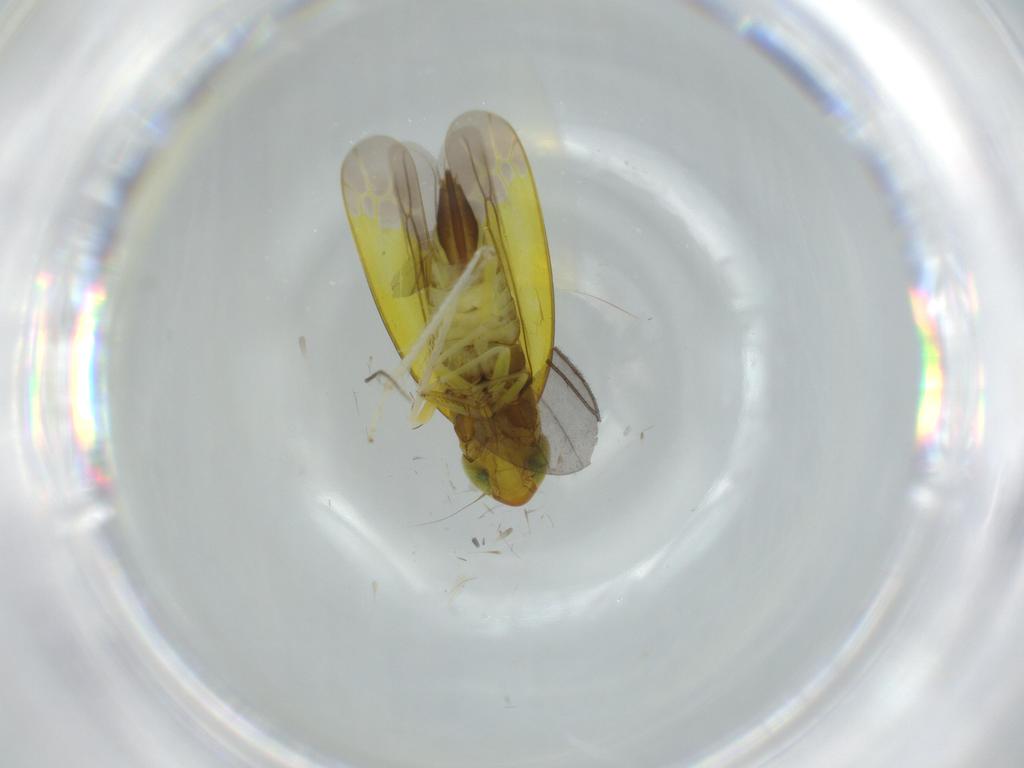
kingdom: Animalia
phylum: Arthropoda
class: Insecta
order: Hemiptera
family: Cicadellidae
